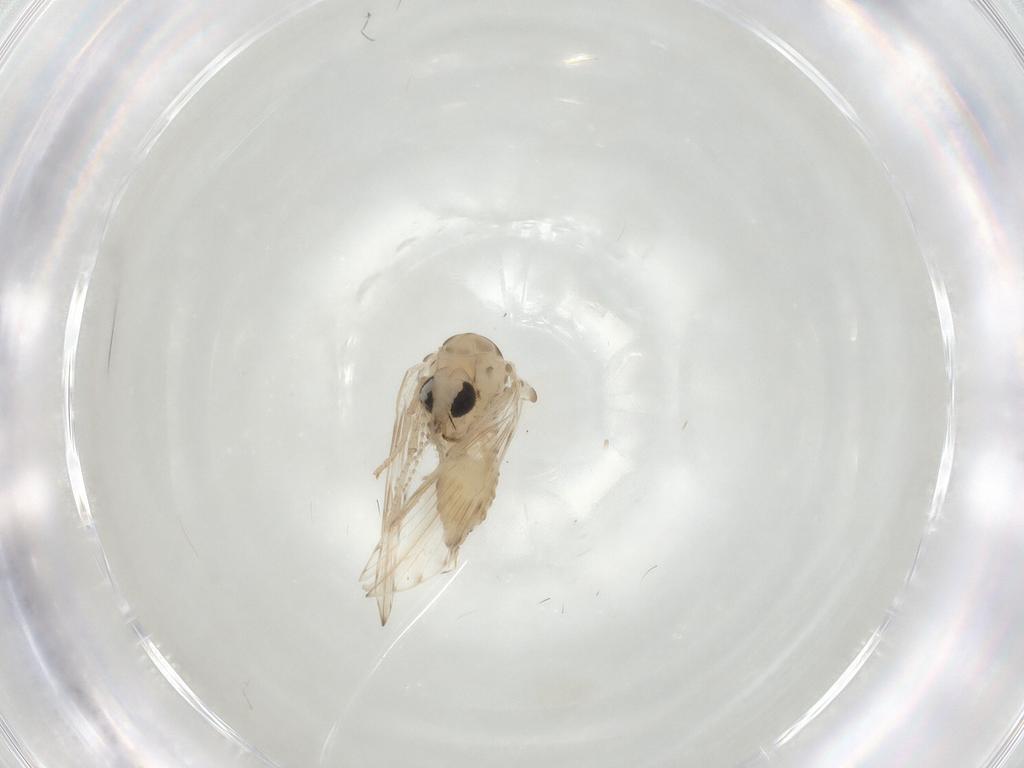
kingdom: Animalia
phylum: Arthropoda
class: Insecta
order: Diptera
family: Psychodidae
